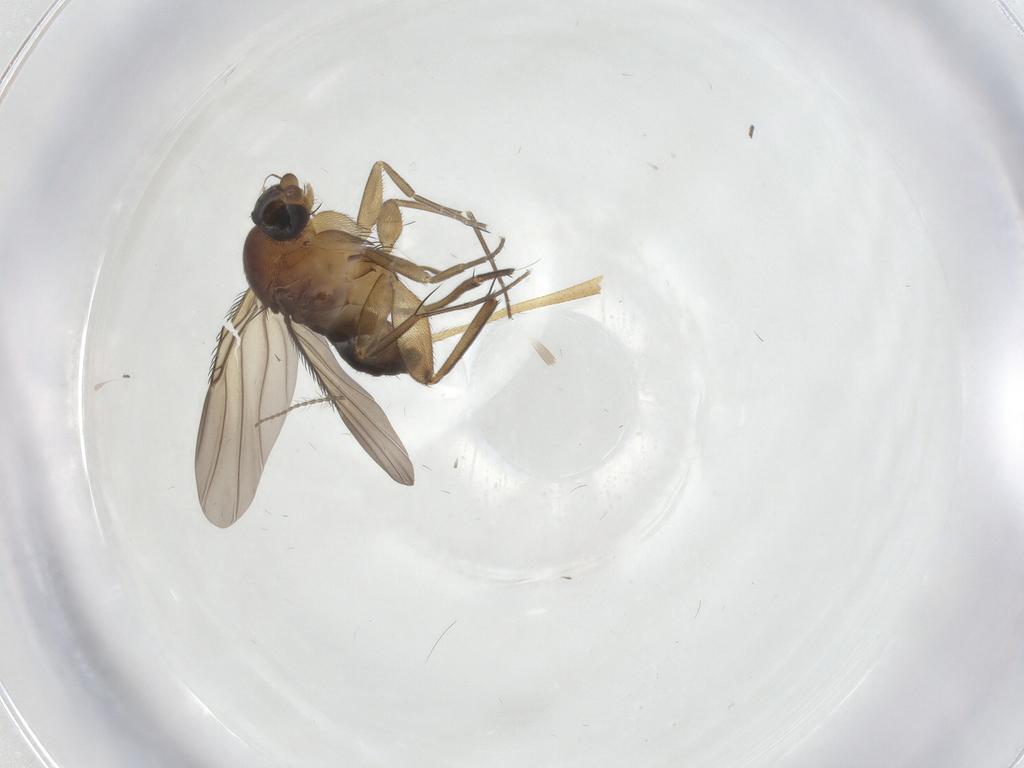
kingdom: Animalia
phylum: Arthropoda
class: Insecta
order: Diptera
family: Phoridae
